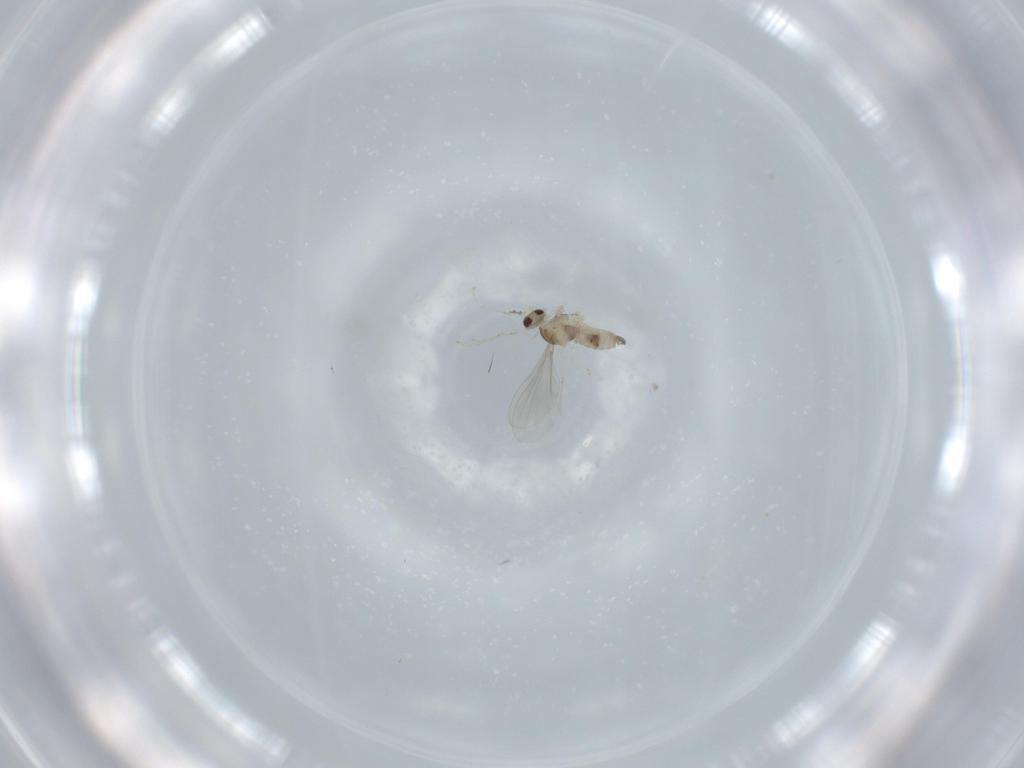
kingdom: Animalia
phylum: Arthropoda
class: Insecta
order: Diptera
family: Cecidomyiidae
